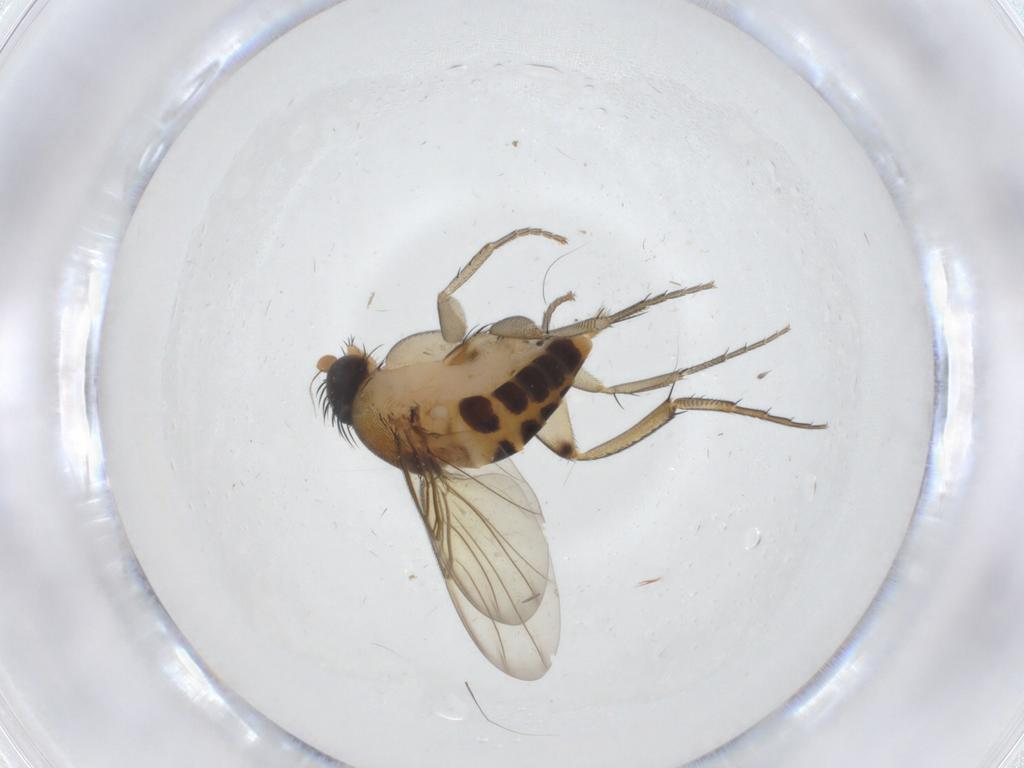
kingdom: Animalia
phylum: Arthropoda
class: Insecta
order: Diptera
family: Phoridae
